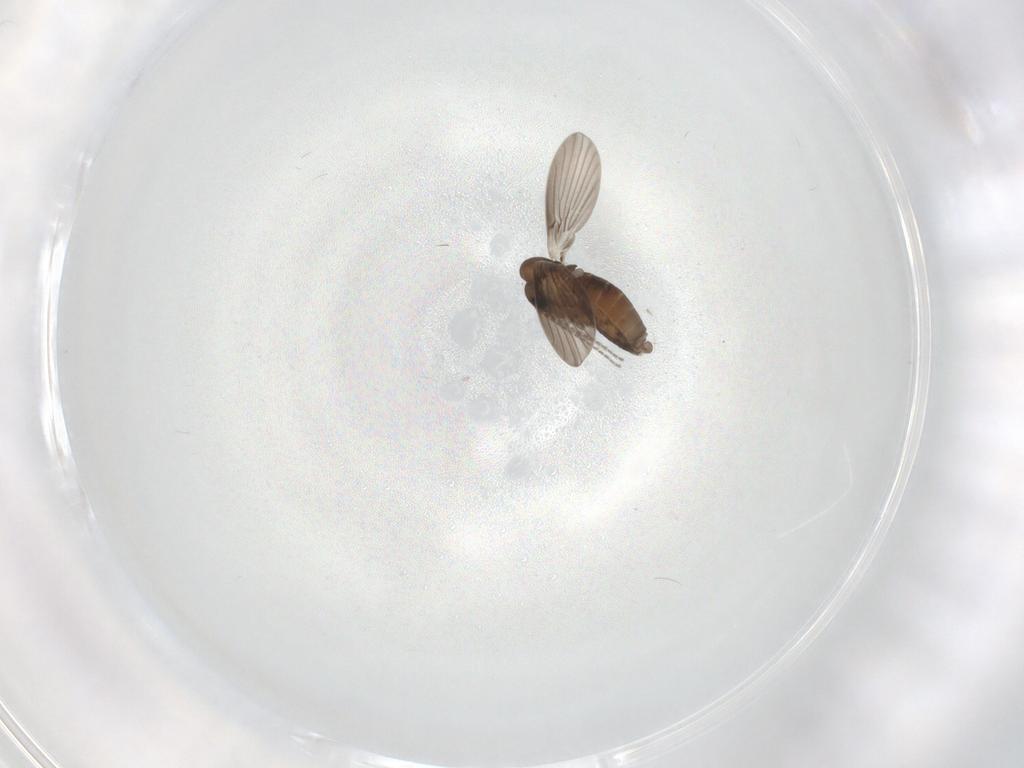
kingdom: Animalia
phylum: Arthropoda
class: Insecta
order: Diptera
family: Cecidomyiidae
